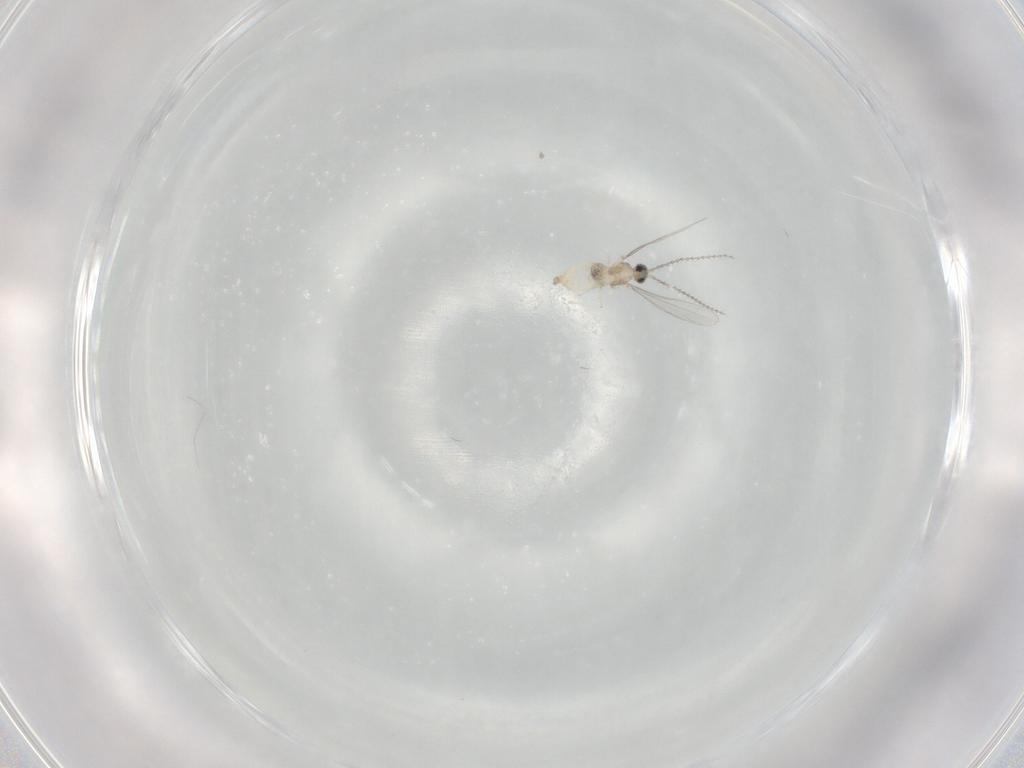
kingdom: Animalia
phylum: Arthropoda
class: Insecta
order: Diptera
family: Cecidomyiidae
